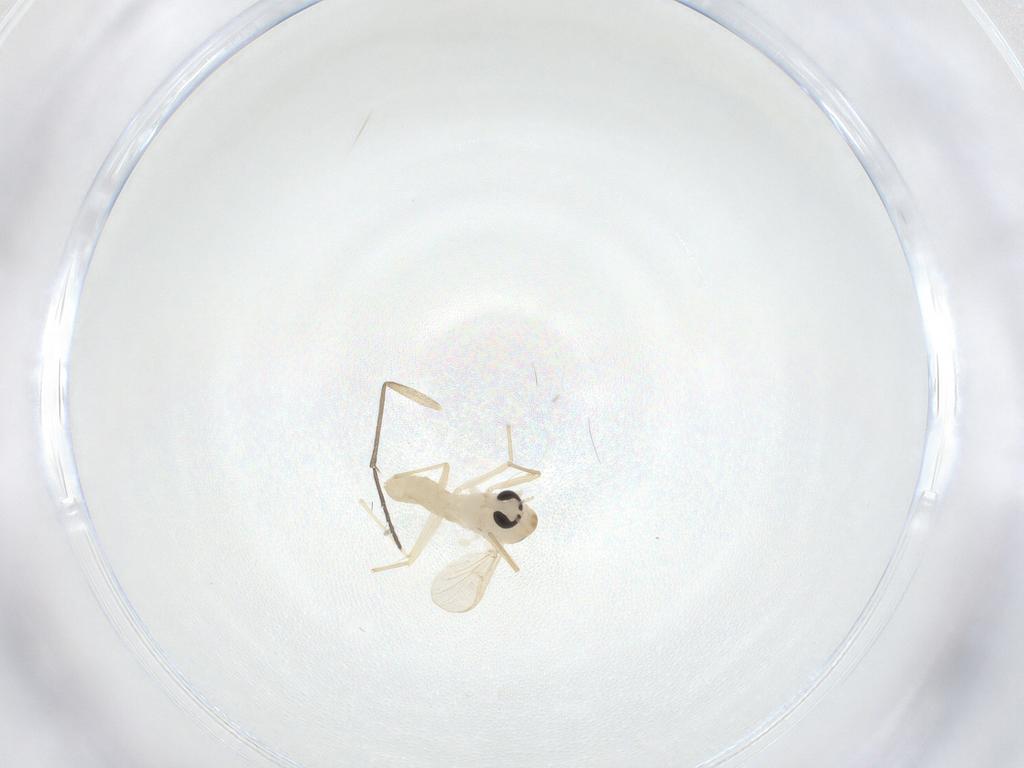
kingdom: Animalia
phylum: Arthropoda
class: Insecta
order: Diptera
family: Chironomidae
